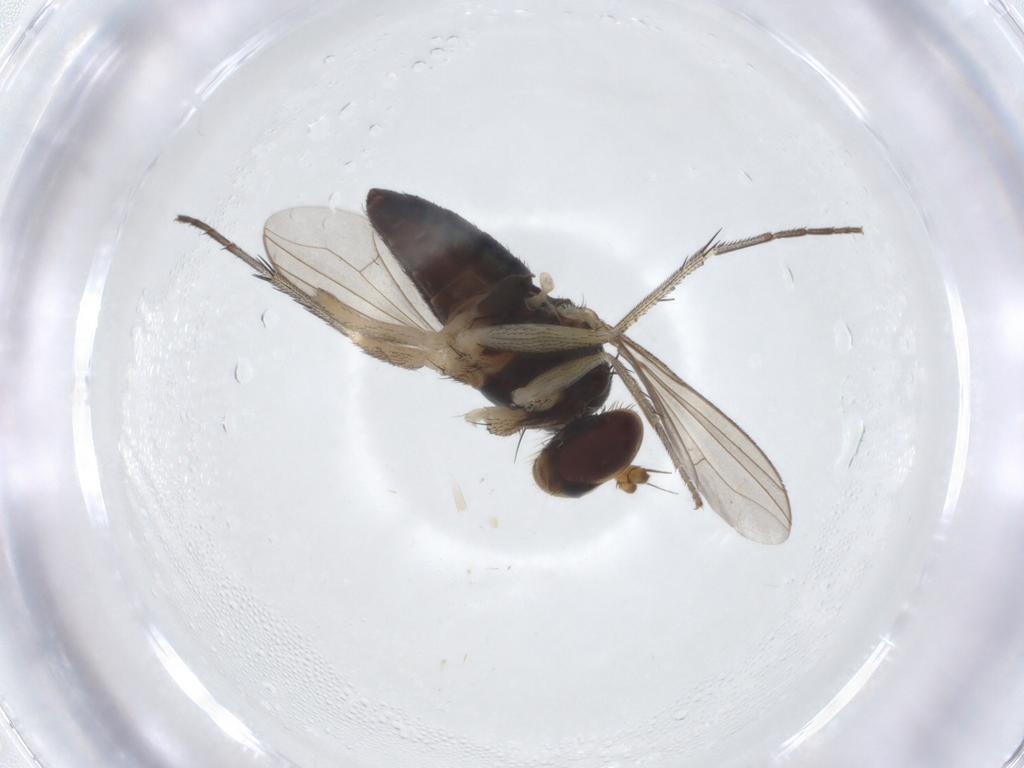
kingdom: Animalia
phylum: Arthropoda
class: Insecta
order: Diptera
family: Dolichopodidae
